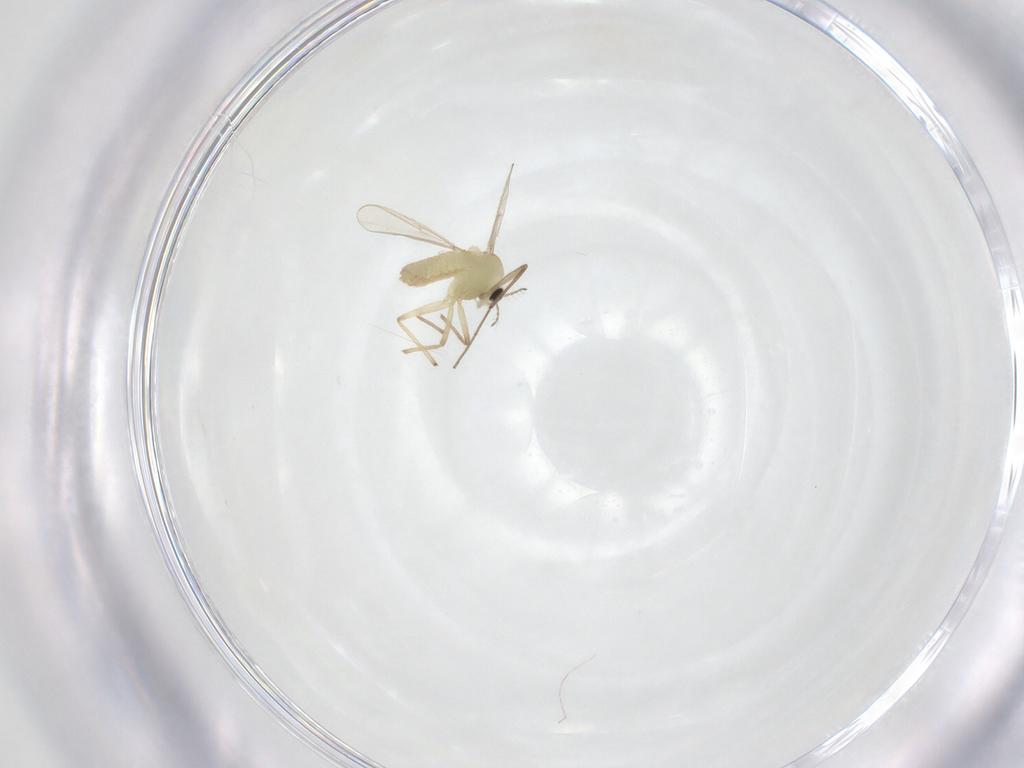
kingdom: Animalia
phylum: Arthropoda
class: Insecta
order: Diptera
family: Chironomidae
